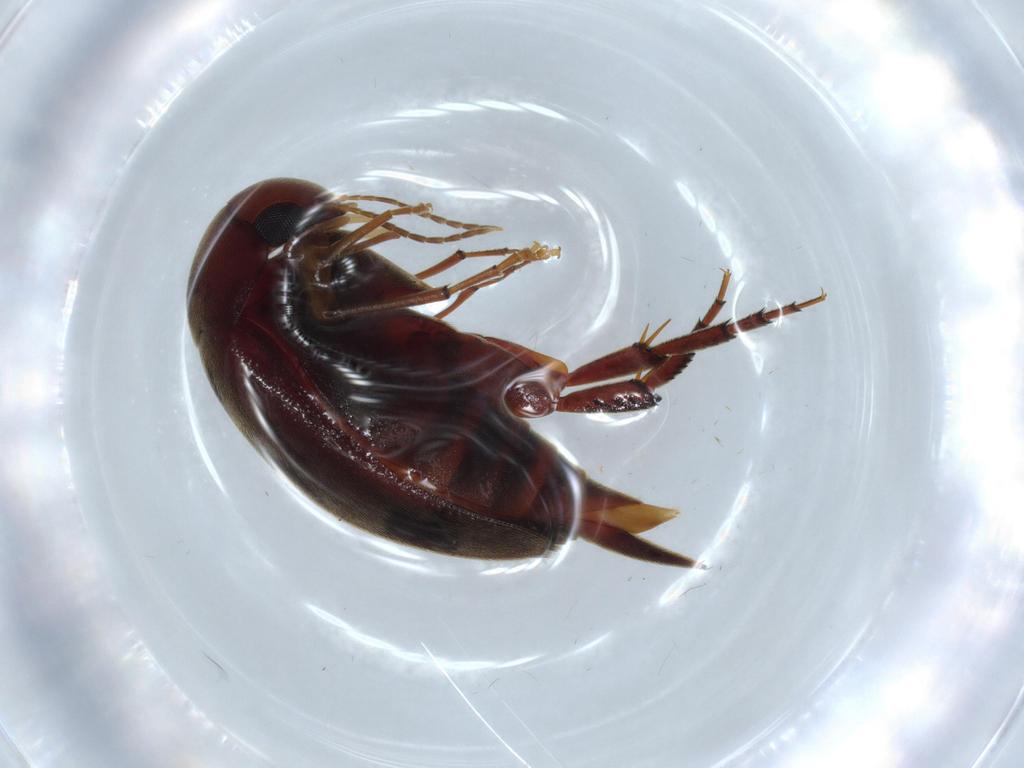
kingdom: Animalia
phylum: Arthropoda
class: Insecta
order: Coleoptera
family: Mordellidae
